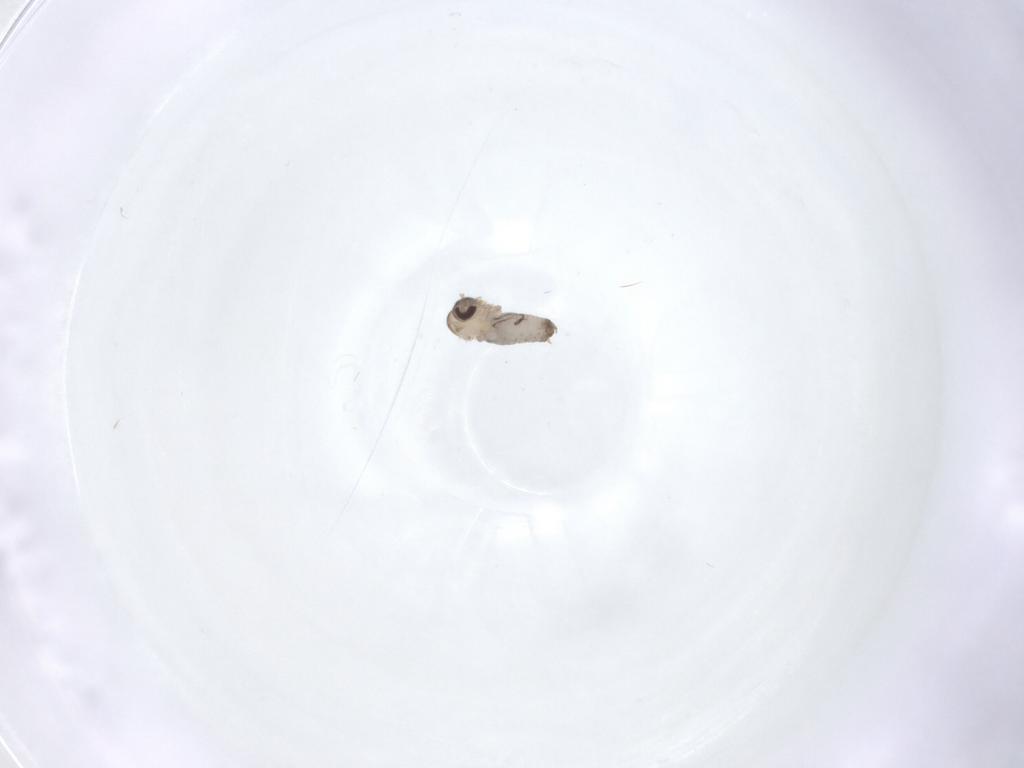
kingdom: Animalia
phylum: Arthropoda
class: Insecta
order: Diptera
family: Psychodidae
